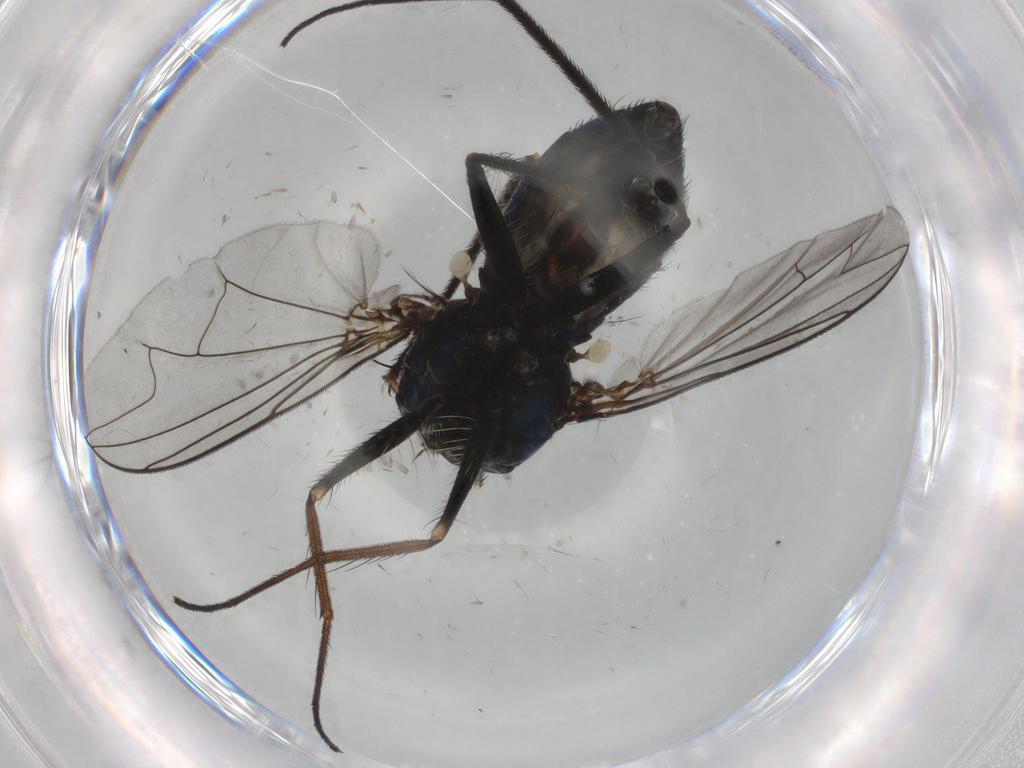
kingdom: Animalia
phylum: Arthropoda
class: Insecta
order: Diptera
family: Dolichopodidae
